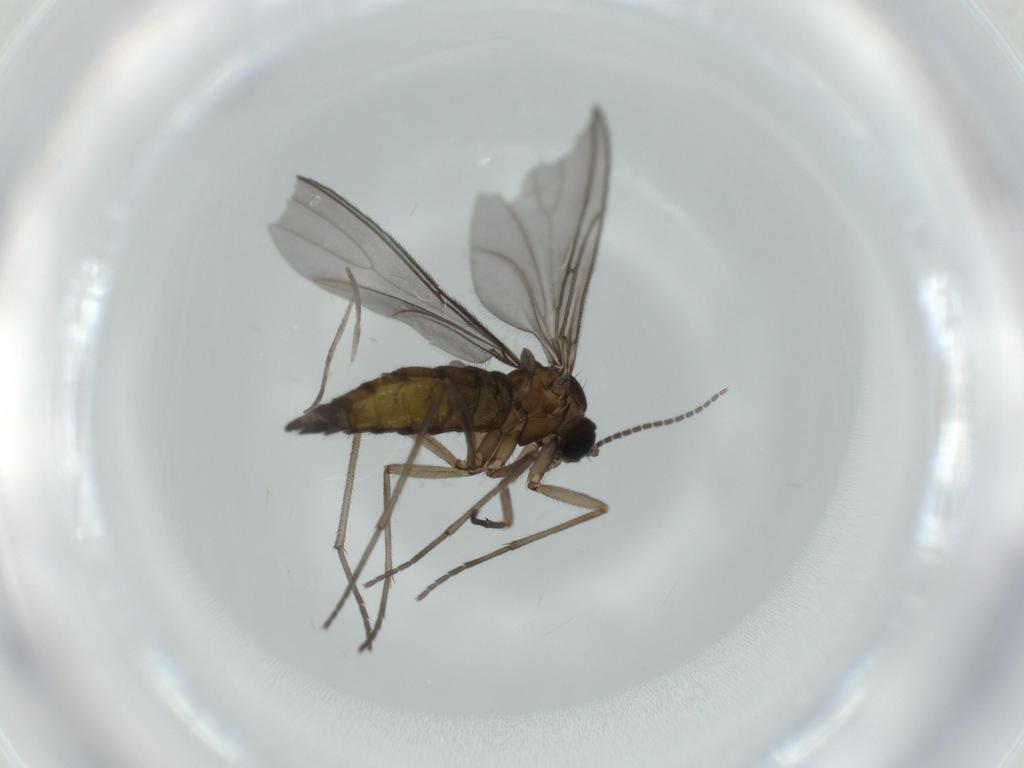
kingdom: Animalia
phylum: Arthropoda
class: Insecta
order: Diptera
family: Sciaridae
